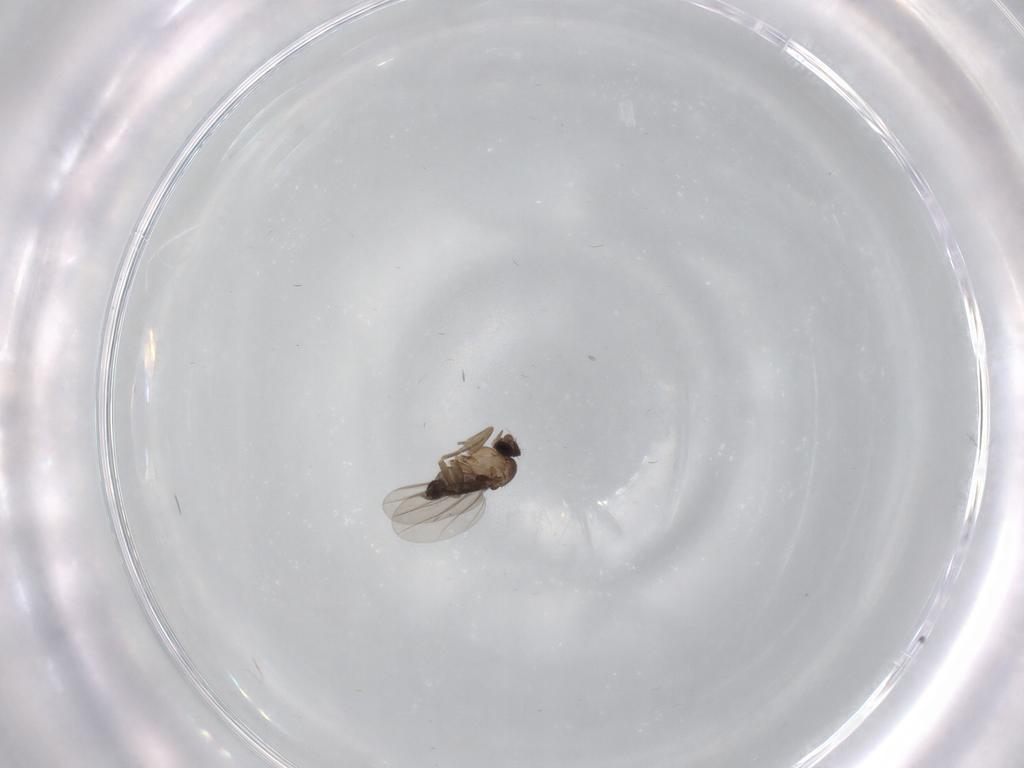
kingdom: Animalia
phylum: Arthropoda
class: Insecta
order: Diptera
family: Phoridae
